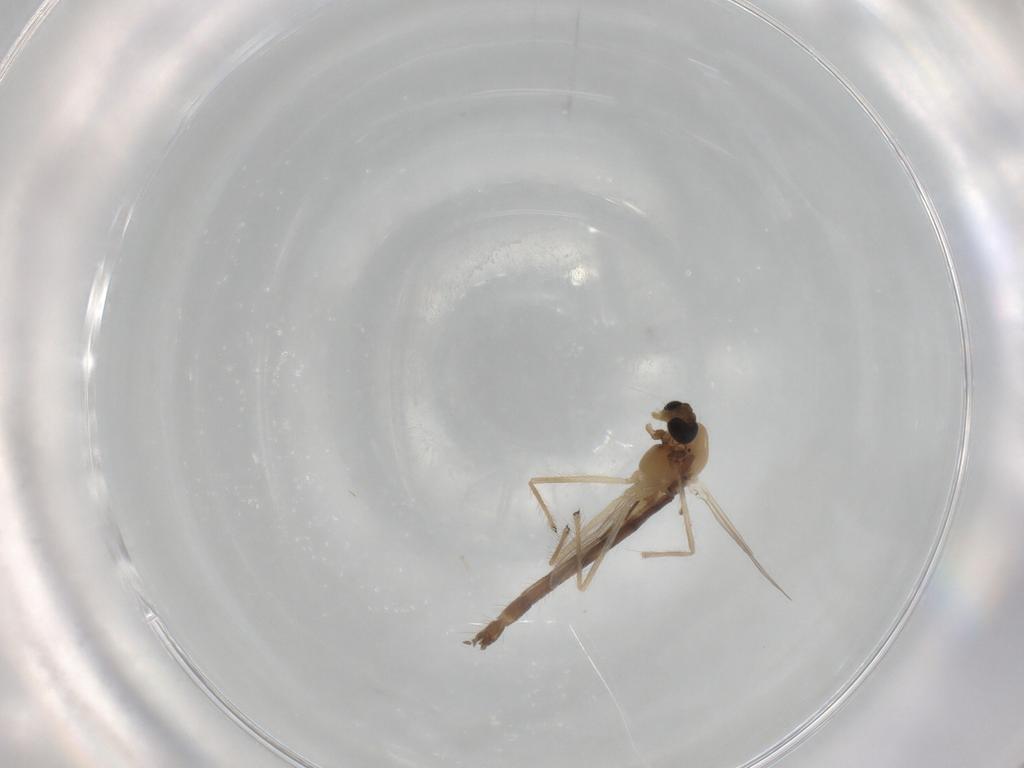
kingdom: Animalia
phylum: Arthropoda
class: Insecta
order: Diptera
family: Chironomidae
